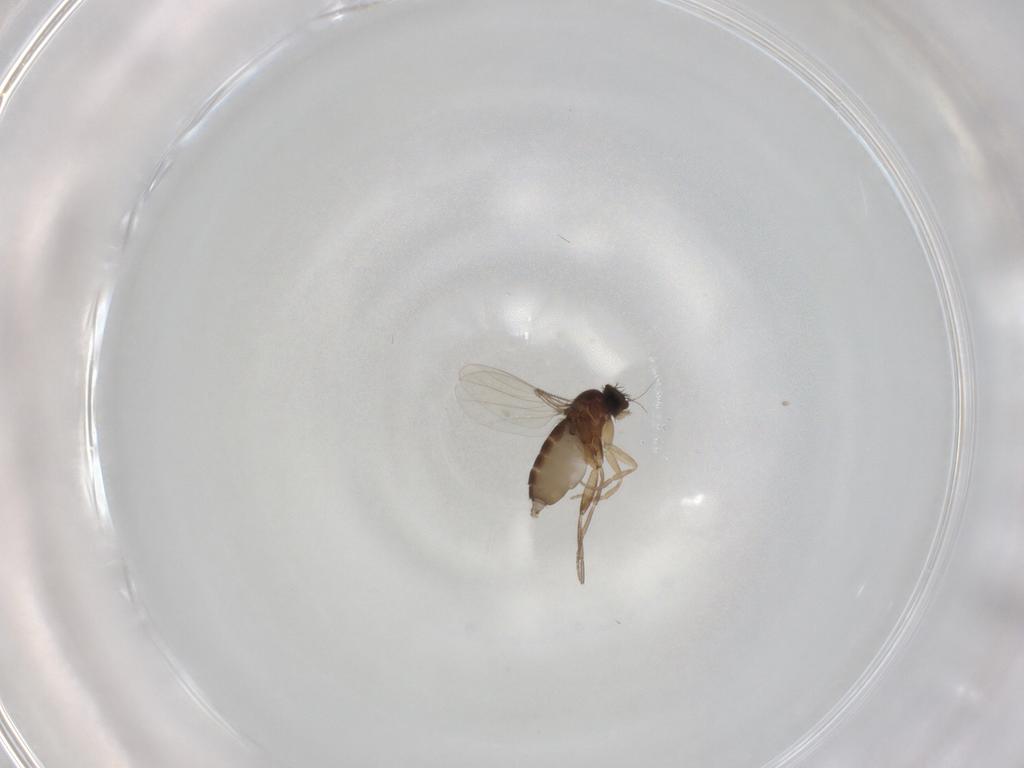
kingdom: Animalia
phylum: Arthropoda
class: Insecta
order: Diptera
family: Phoridae
